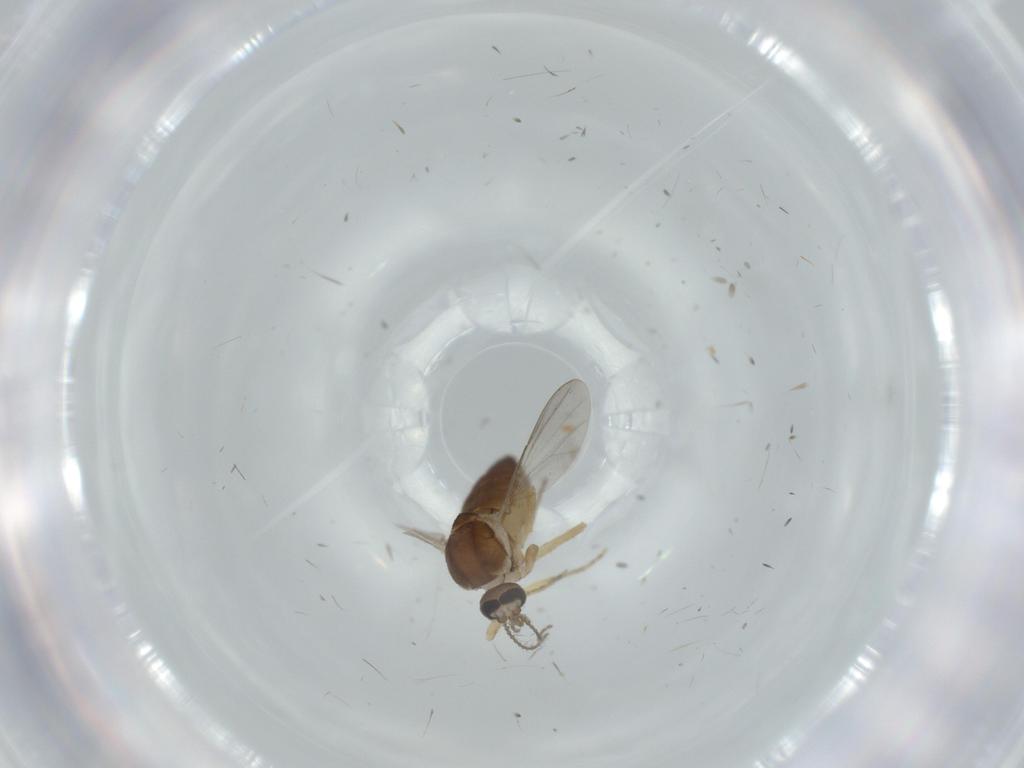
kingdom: Animalia
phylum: Arthropoda
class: Insecta
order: Diptera
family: Ceratopogonidae
